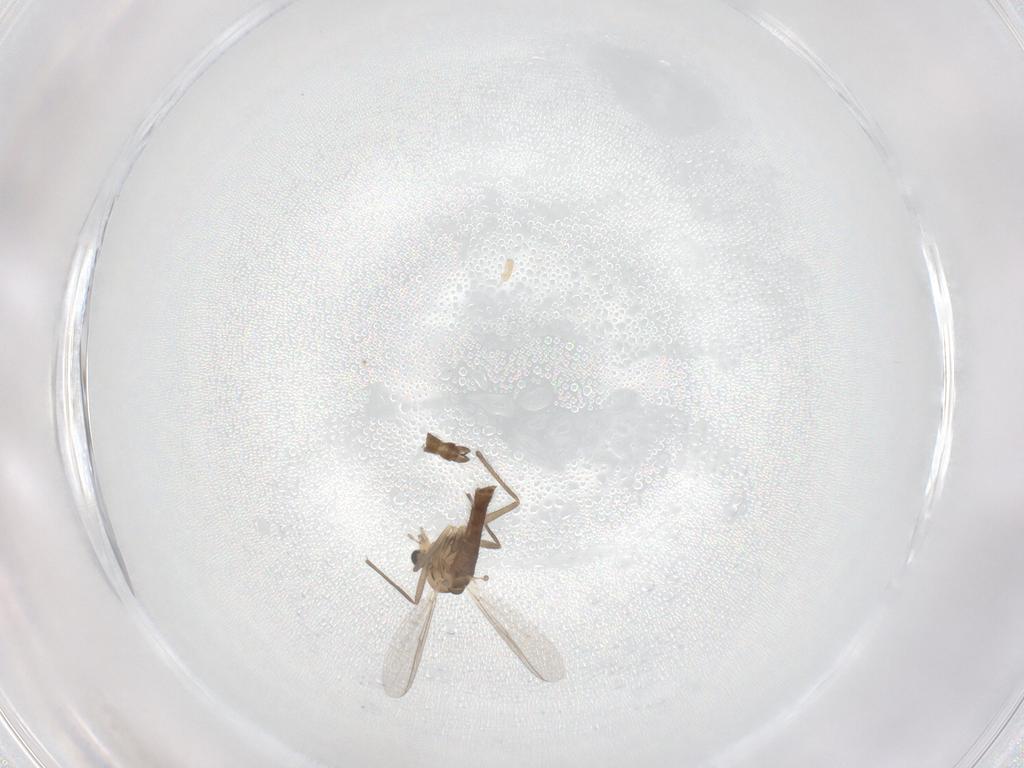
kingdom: Animalia
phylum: Arthropoda
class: Insecta
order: Diptera
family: Chironomidae
